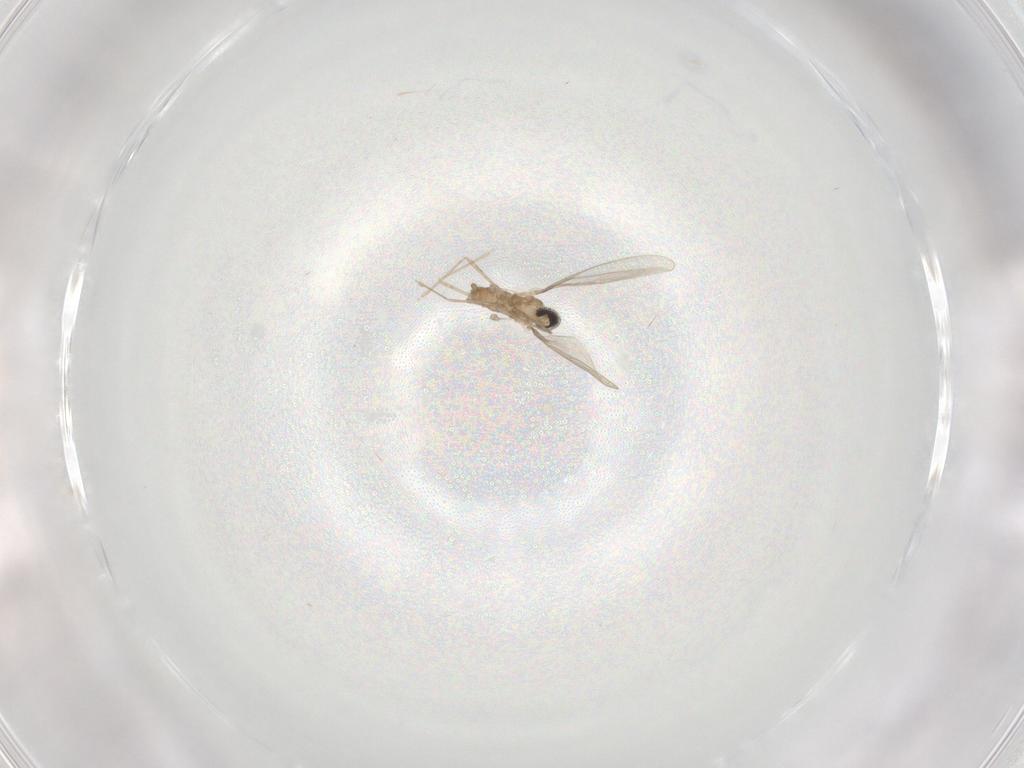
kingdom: Animalia
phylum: Arthropoda
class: Insecta
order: Diptera
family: Cecidomyiidae
